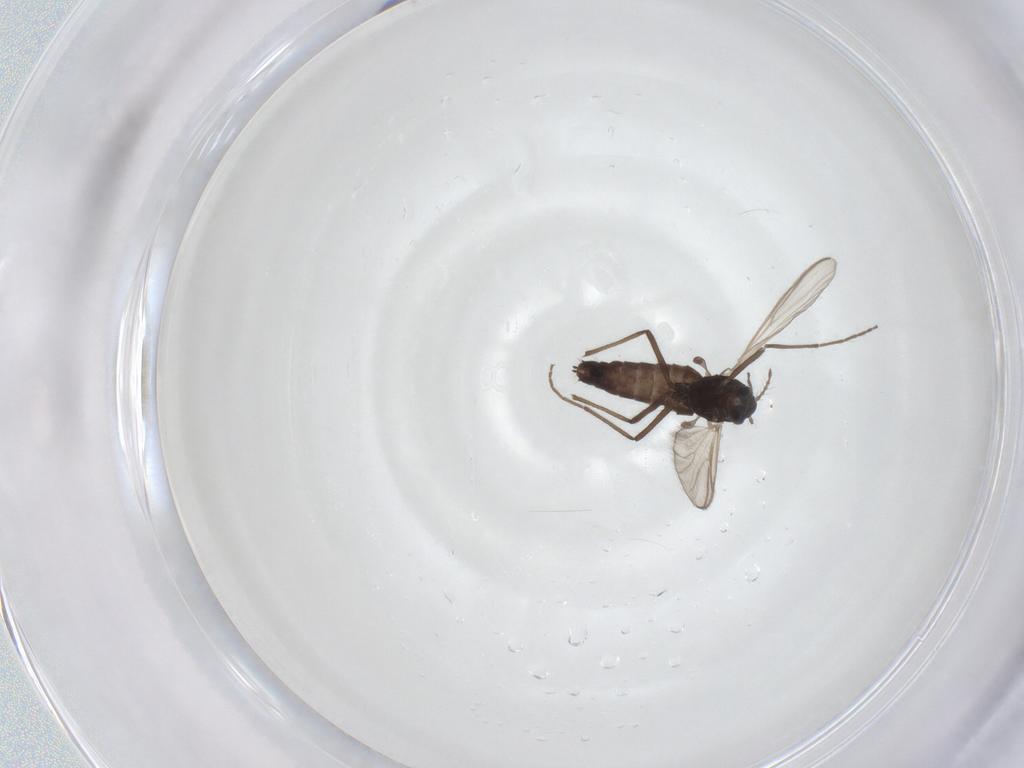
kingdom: Animalia
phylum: Arthropoda
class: Insecta
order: Diptera
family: Chironomidae
